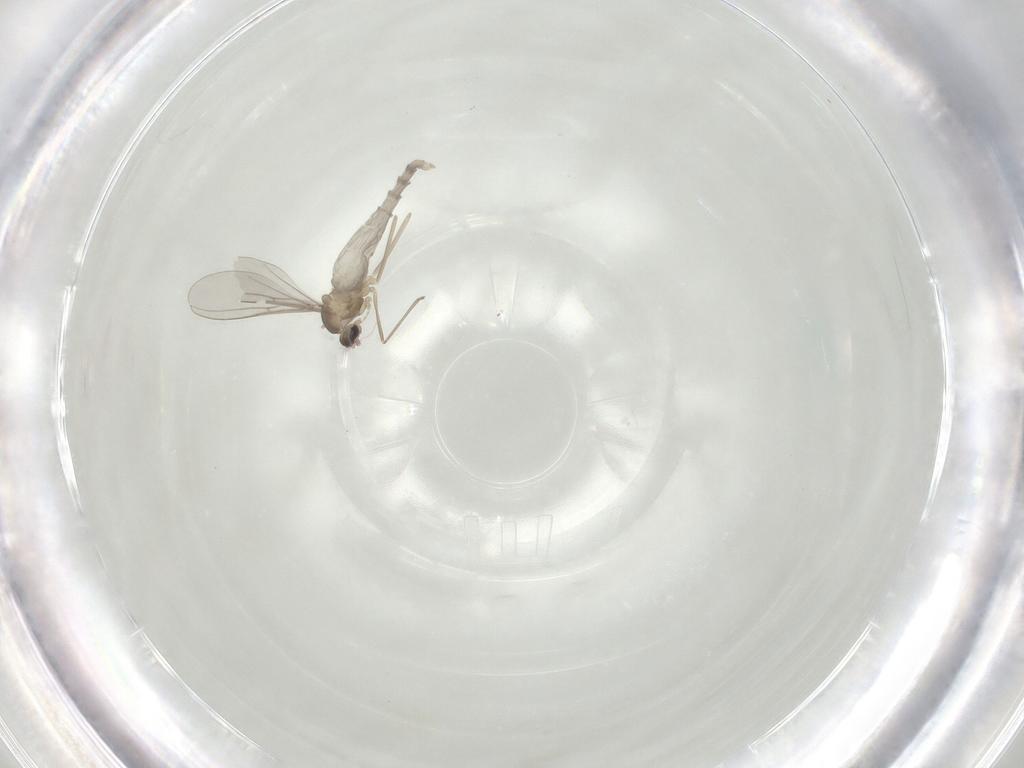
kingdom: Animalia
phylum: Arthropoda
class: Insecta
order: Diptera
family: Cecidomyiidae
